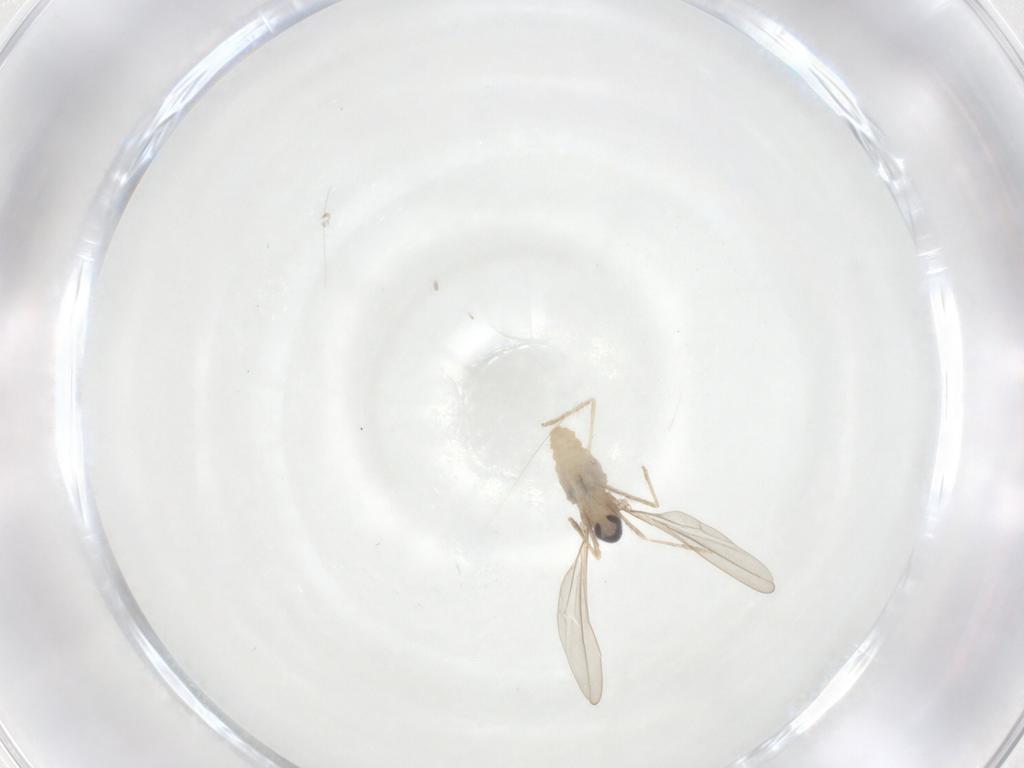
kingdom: Animalia
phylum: Arthropoda
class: Insecta
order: Diptera
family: Cecidomyiidae
